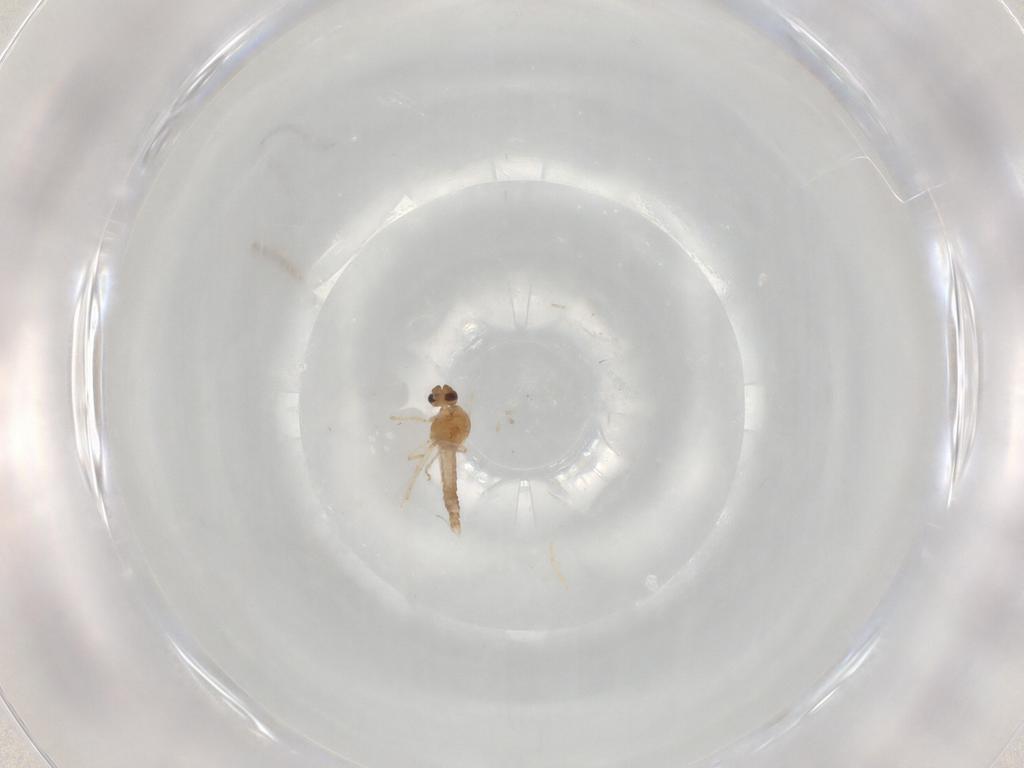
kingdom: Animalia
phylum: Arthropoda
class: Insecta
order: Diptera
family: Ceratopogonidae
